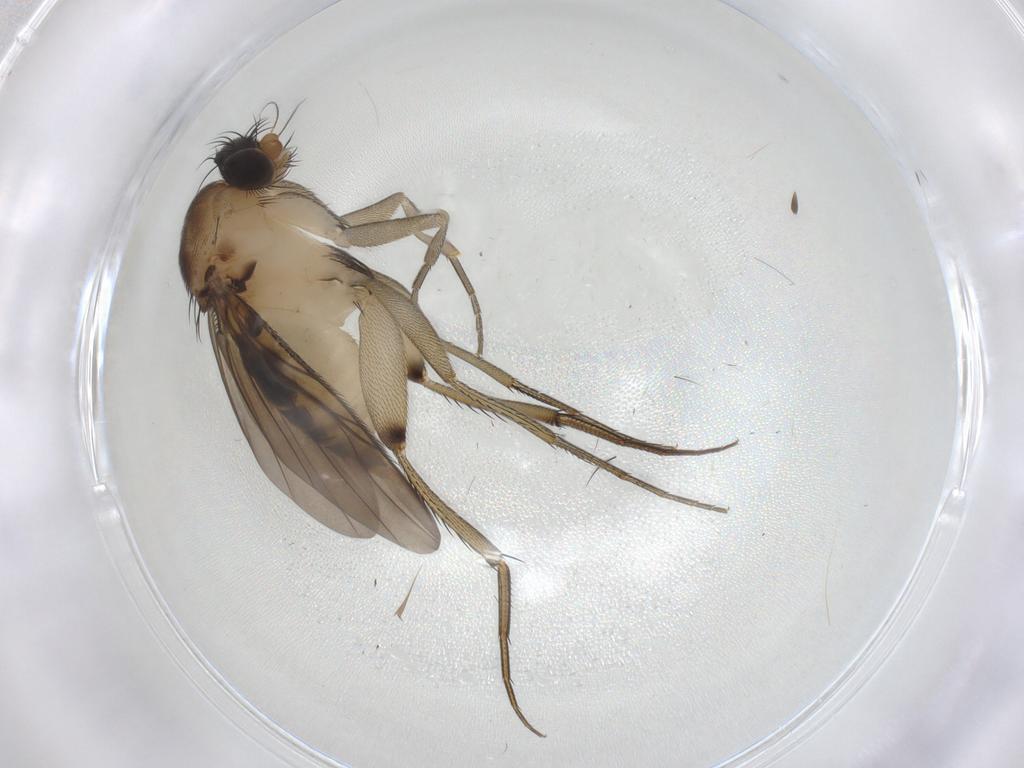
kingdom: Animalia
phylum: Arthropoda
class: Insecta
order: Diptera
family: Phoridae
